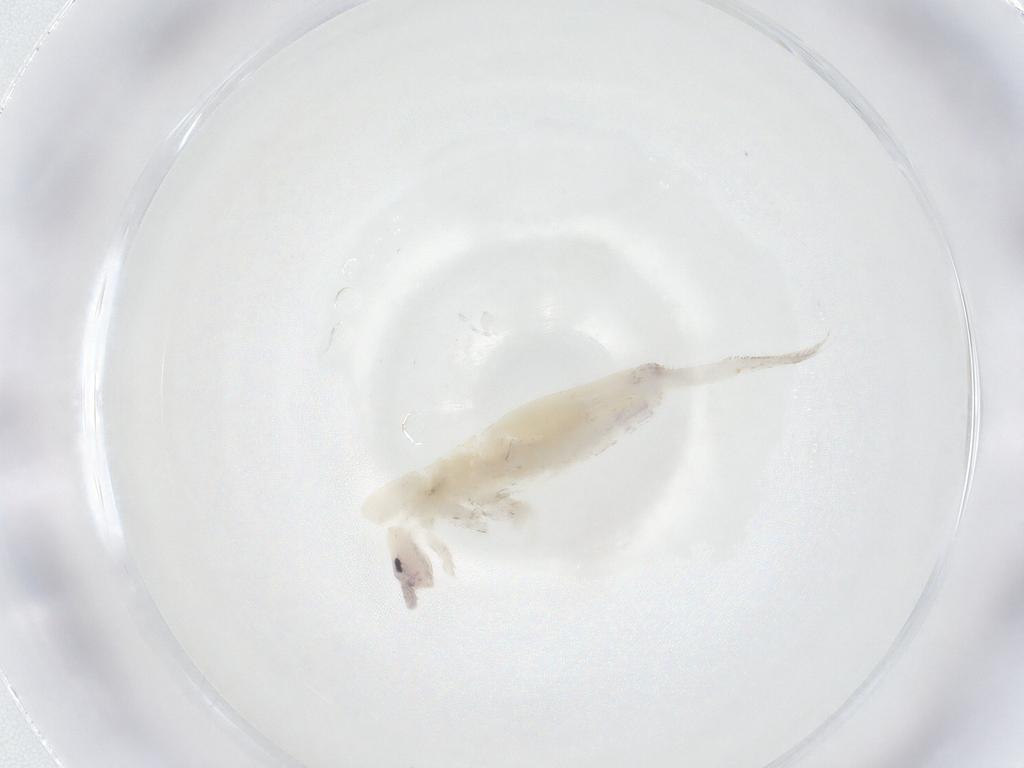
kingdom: Animalia
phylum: Arthropoda
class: Collembola
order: Entomobryomorpha
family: Entomobryidae
